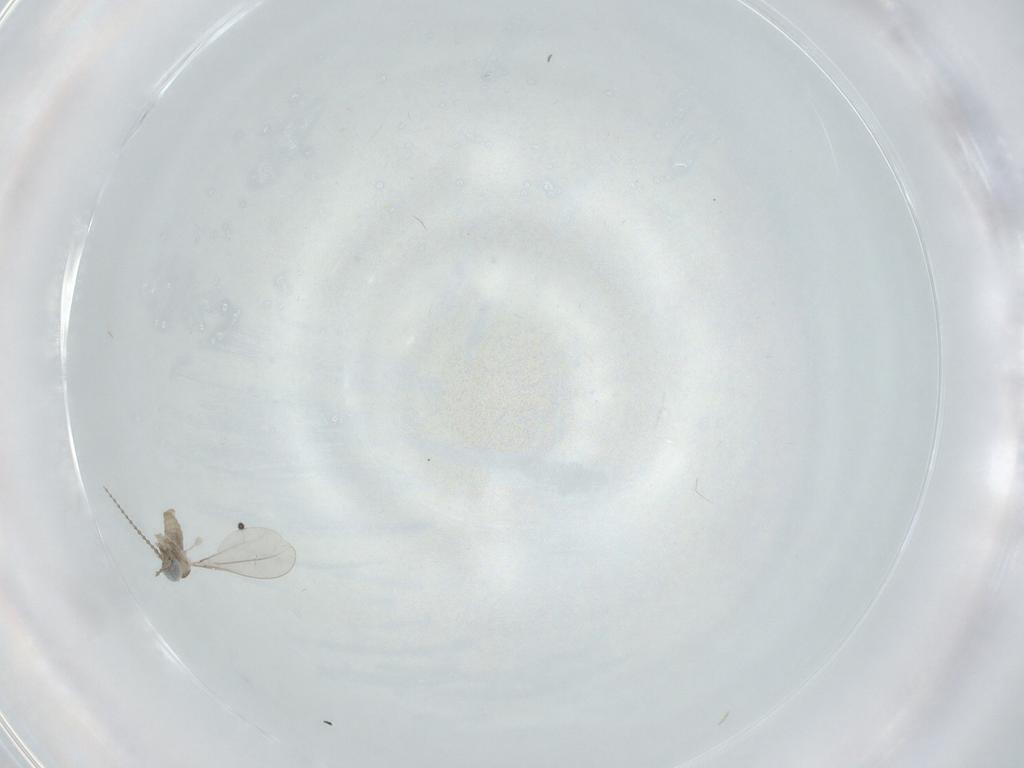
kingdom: Animalia
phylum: Arthropoda
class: Insecta
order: Diptera
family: Cecidomyiidae
